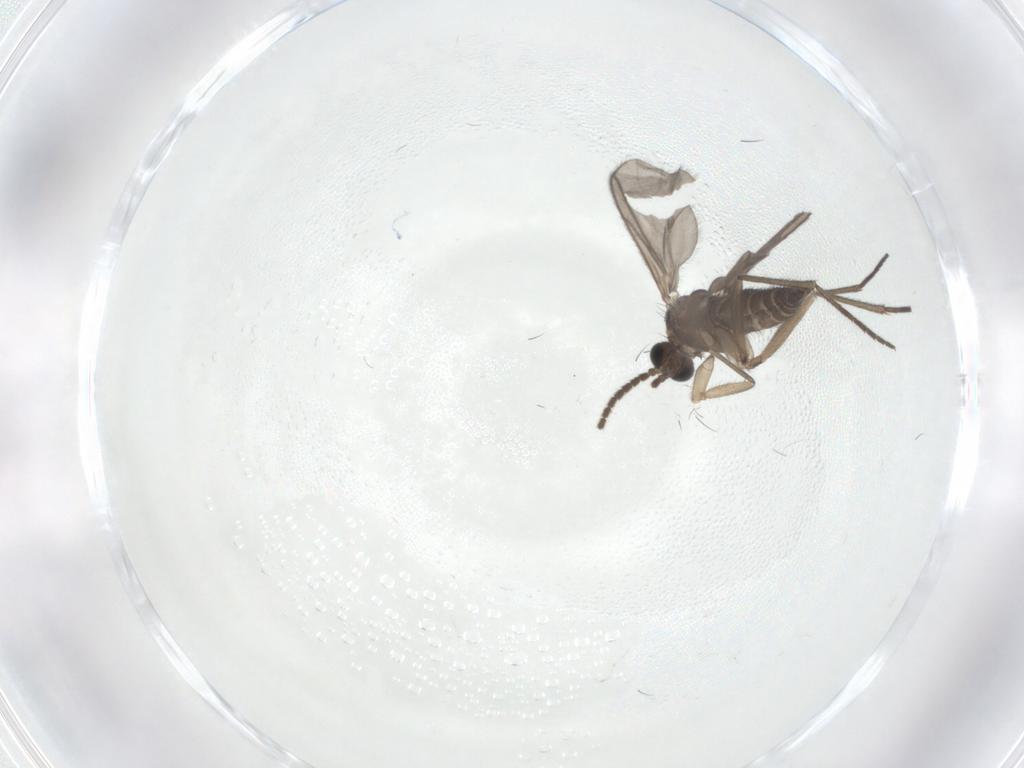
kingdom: Animalia
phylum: Arthropoda
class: Insecta
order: Diptera
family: Sciaridae
